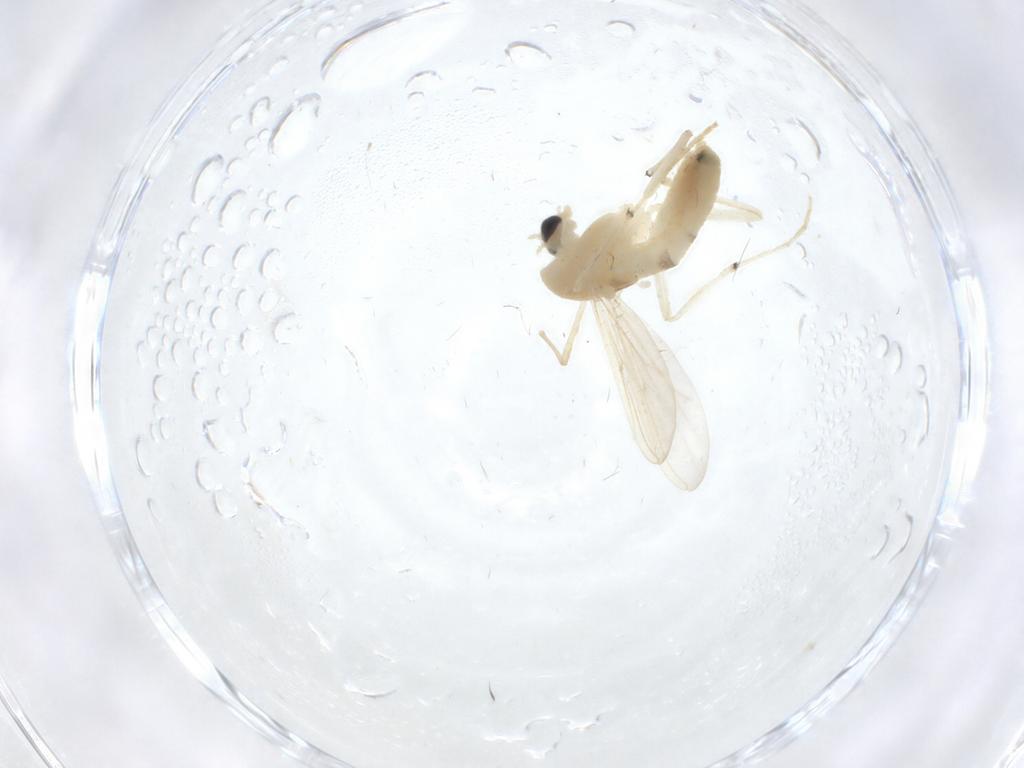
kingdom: Animalia
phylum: Arthropoda
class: Insecta
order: Diptera
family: Chironomidae
